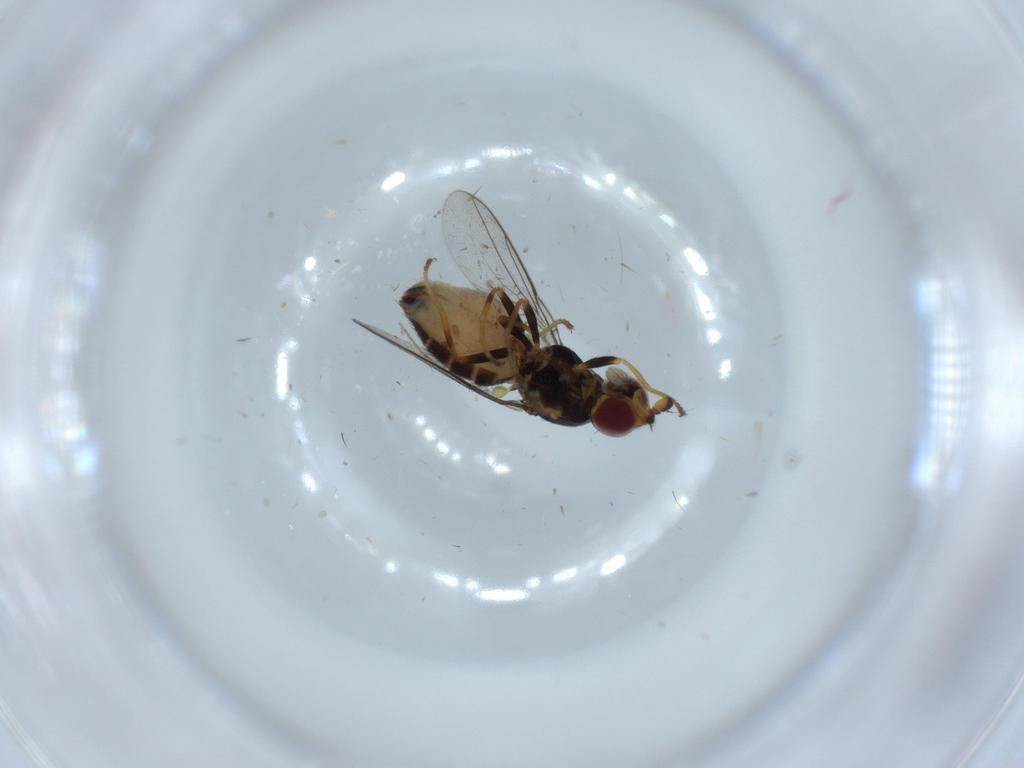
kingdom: Animalia
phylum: Arthropoda
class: Insecta
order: Diptera
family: Chloropidae
